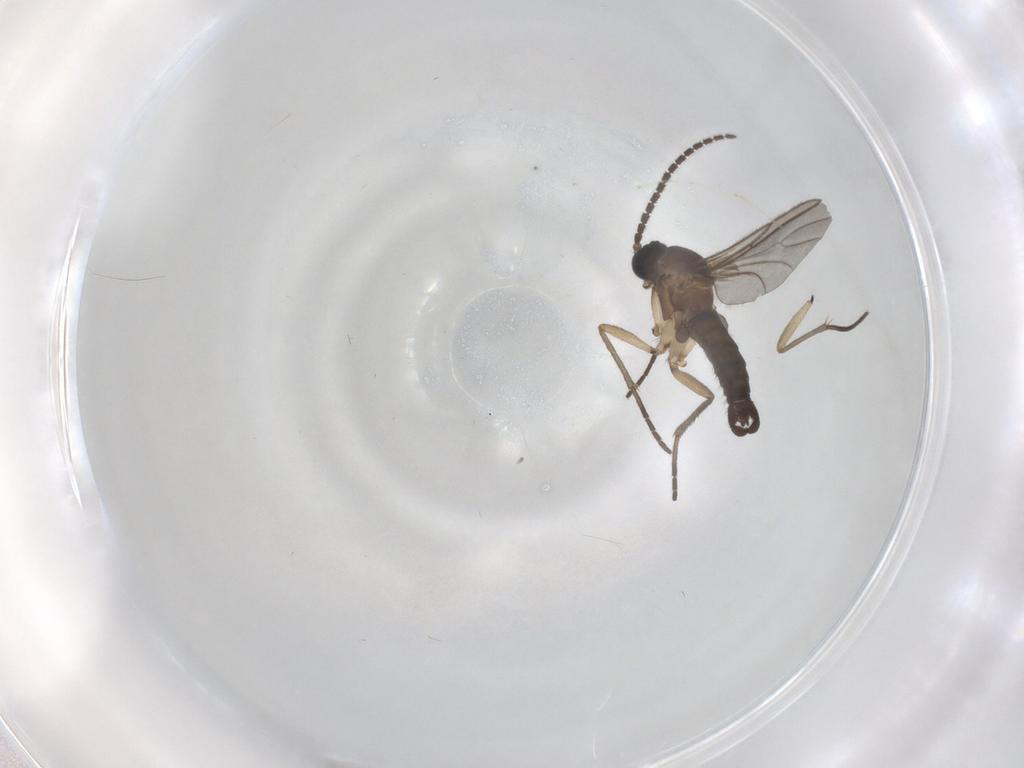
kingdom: Animalia
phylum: Arthropoda
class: Insecta
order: Diptera
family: Sciaridae
